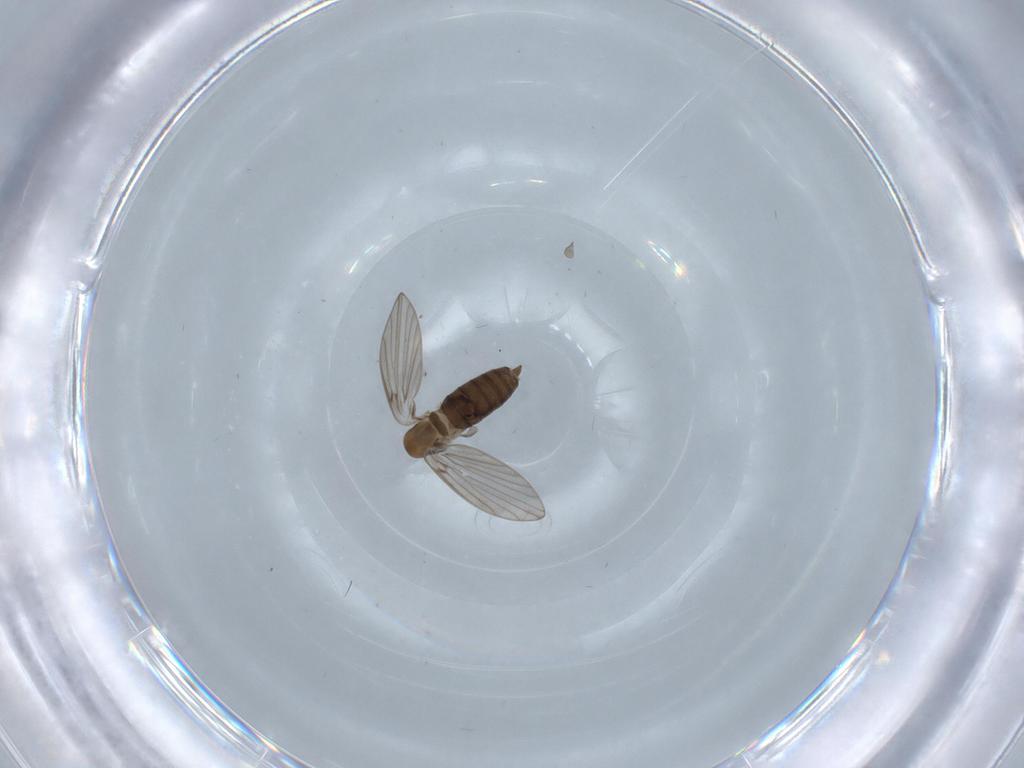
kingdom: Animalia
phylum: Arthropoda
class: Insecta
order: Diptera
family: Psychodidae
